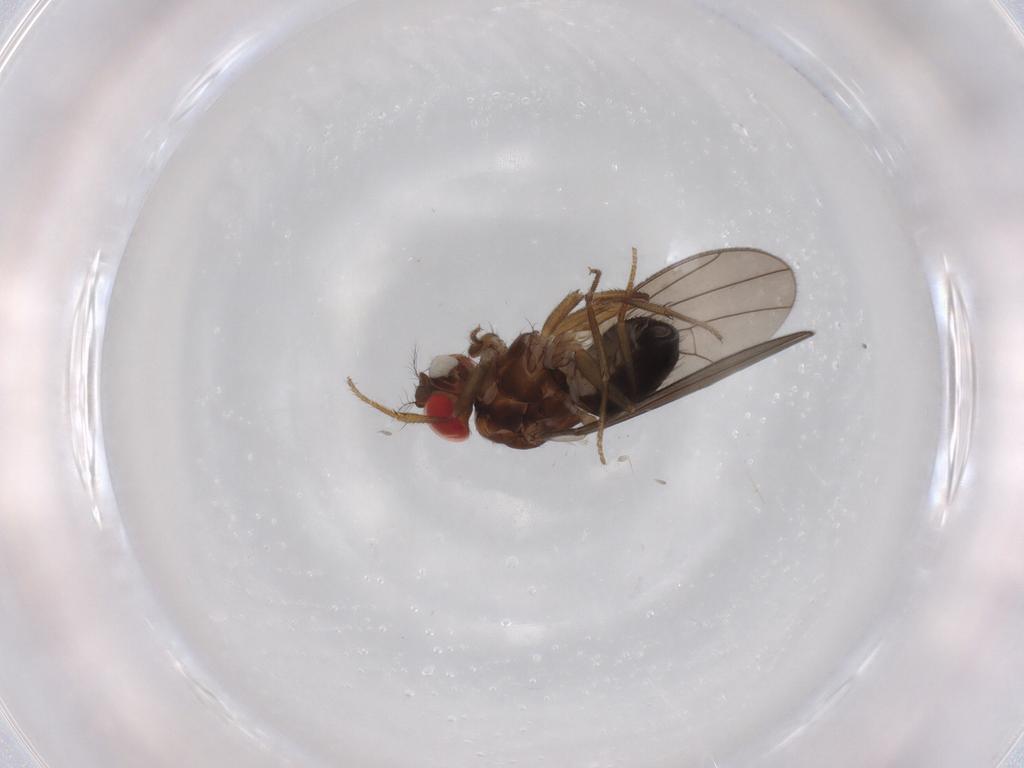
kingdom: Animalia
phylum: Arthropoda
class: Insecta
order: Diptera
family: Drosophilidae
